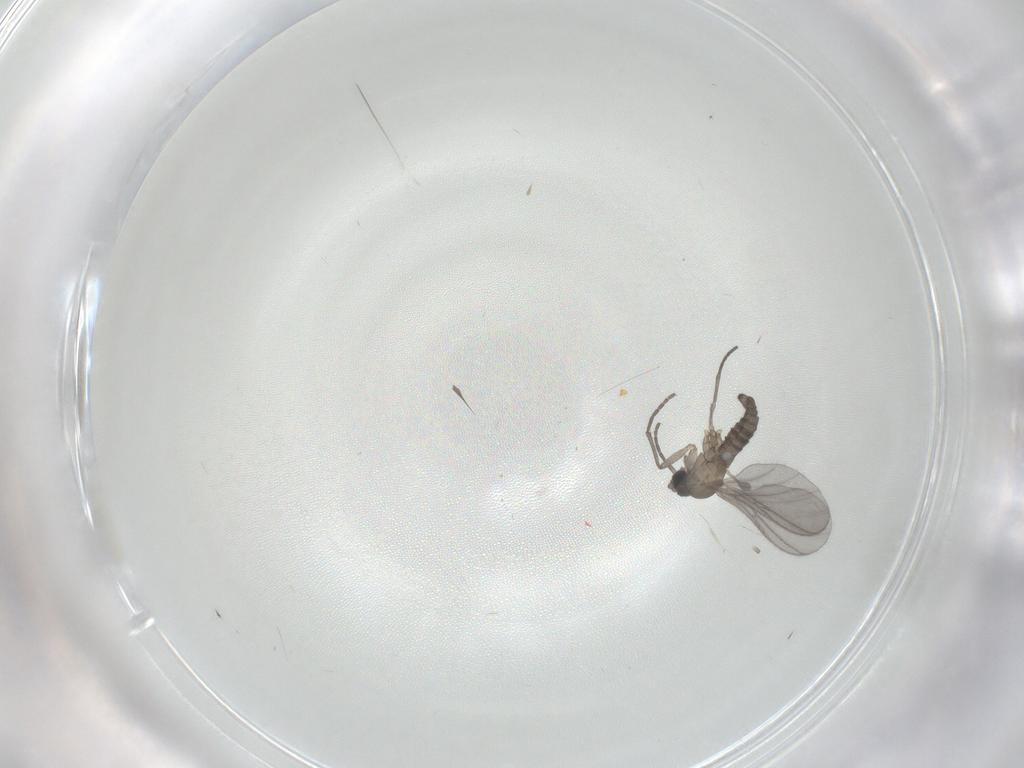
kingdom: Animalia
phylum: Arthropoda
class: Insecta
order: Diptera
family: Sciaridae
